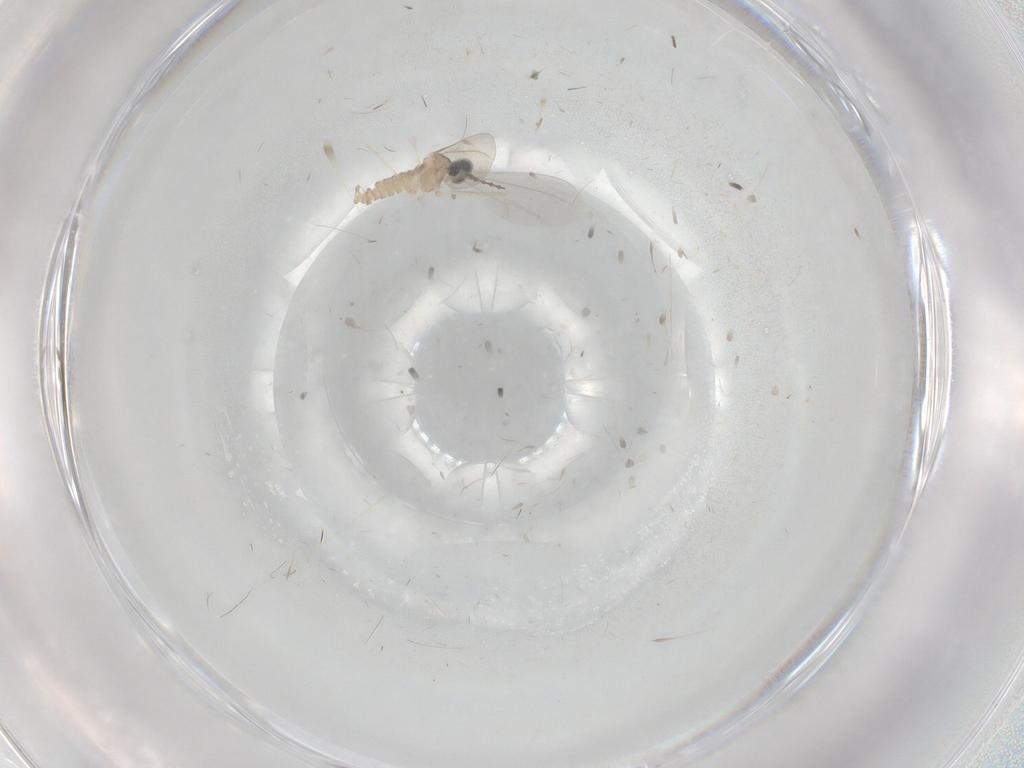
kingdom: Animalia
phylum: Arthropoda
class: Insecta
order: Diptera
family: Cecidomyiidae
